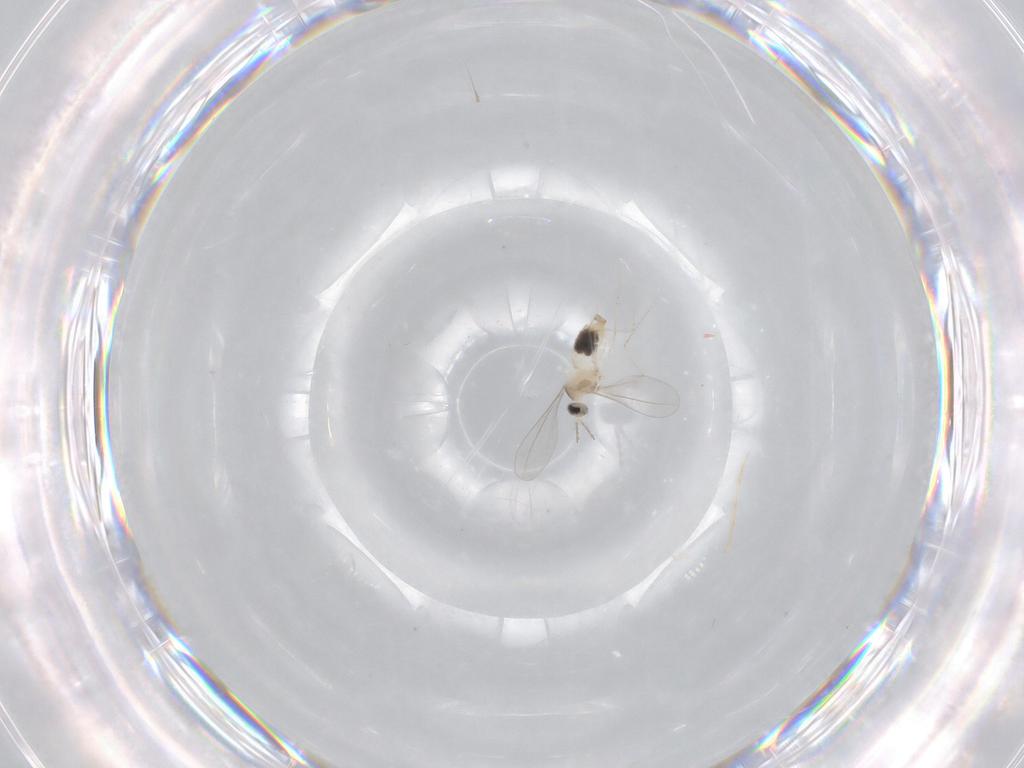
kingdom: Animalia
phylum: Arthropoda
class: Insecta
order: Diptera
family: Cecidomyiidae
